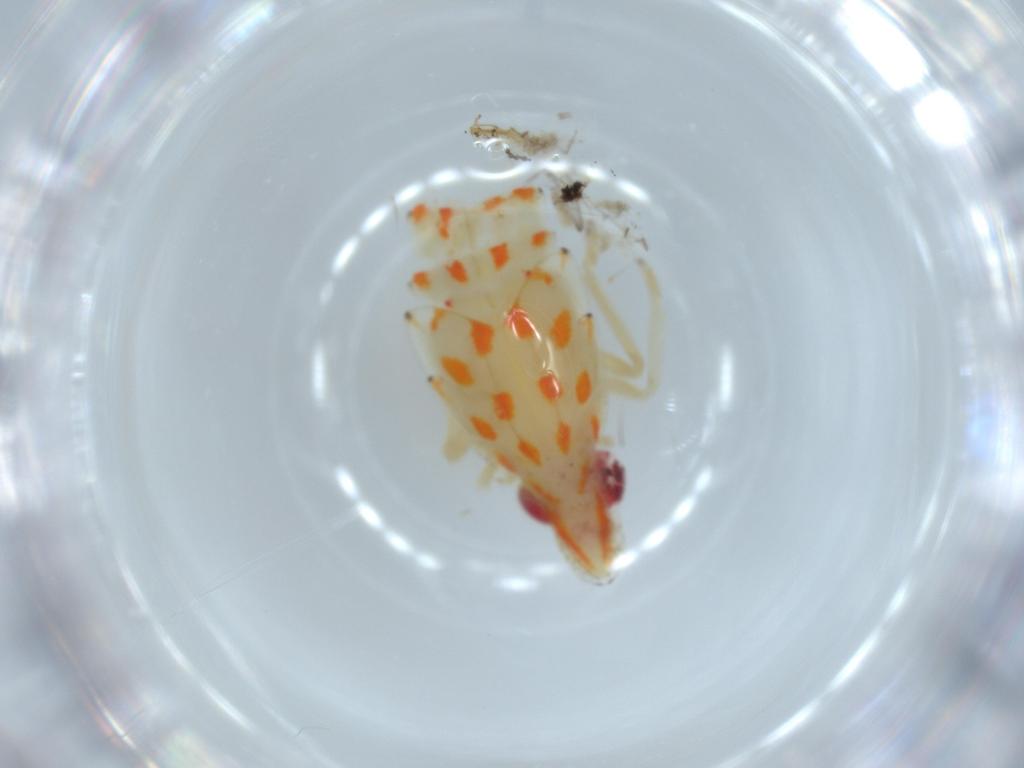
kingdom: Animalia
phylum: Arthropoda
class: Insecta
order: Hemiptera
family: Tropiduchidae
